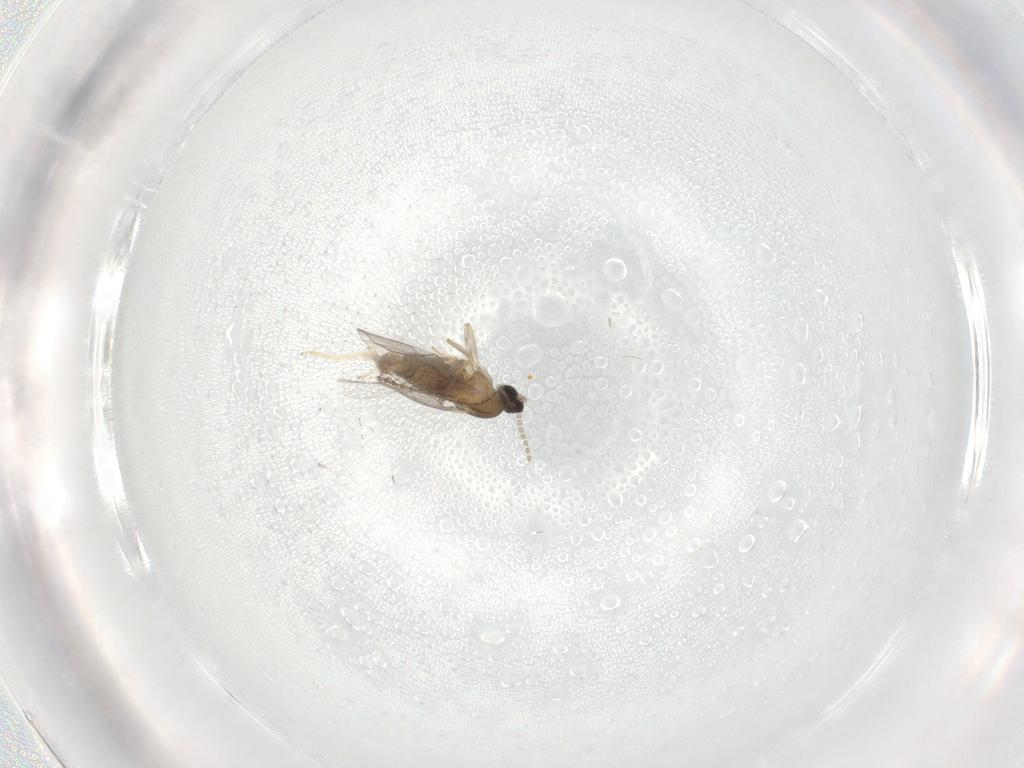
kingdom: Animalia
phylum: Arthropoda
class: Insecta
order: Diptera
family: Cecidomyiidae
